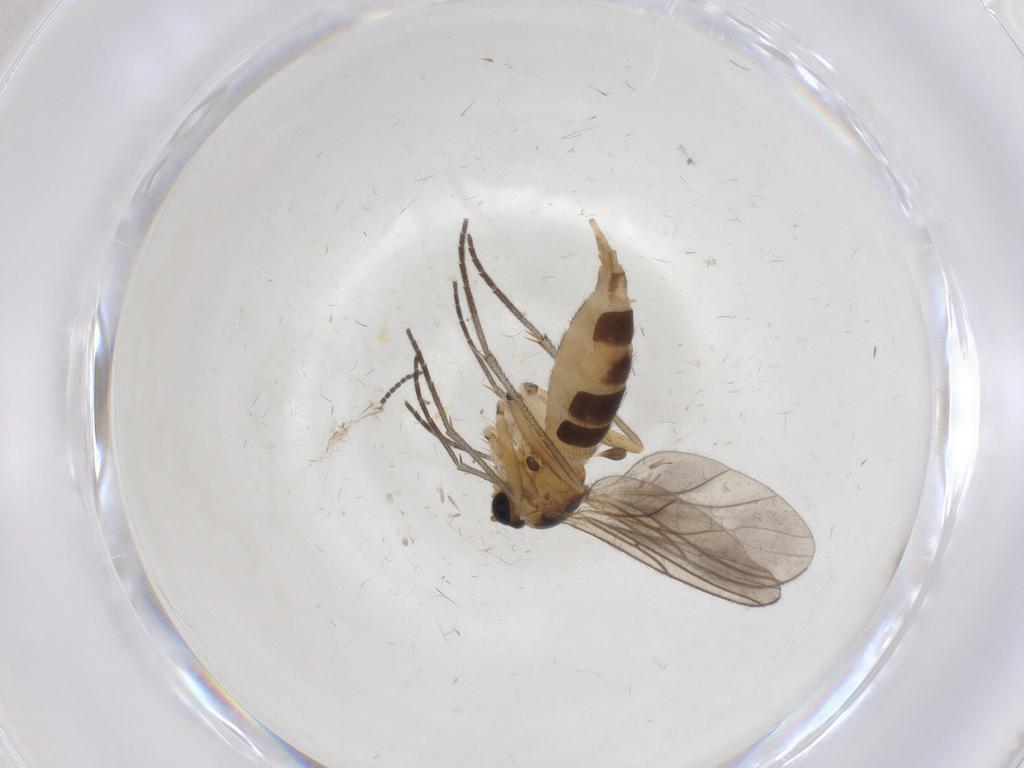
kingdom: Animalia
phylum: Arthropoda
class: Insecta
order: Diptera
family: Sciaridae
